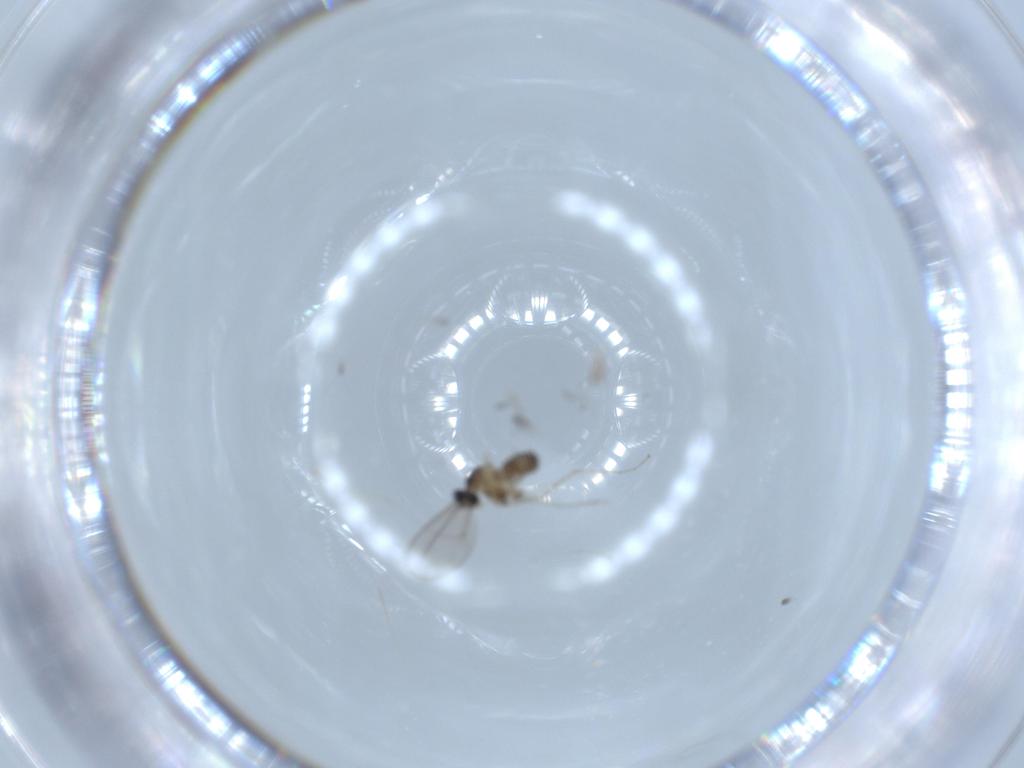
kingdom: Animalia
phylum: Arthropoda
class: Insecta
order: Diptera
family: Cecidomyiidae
